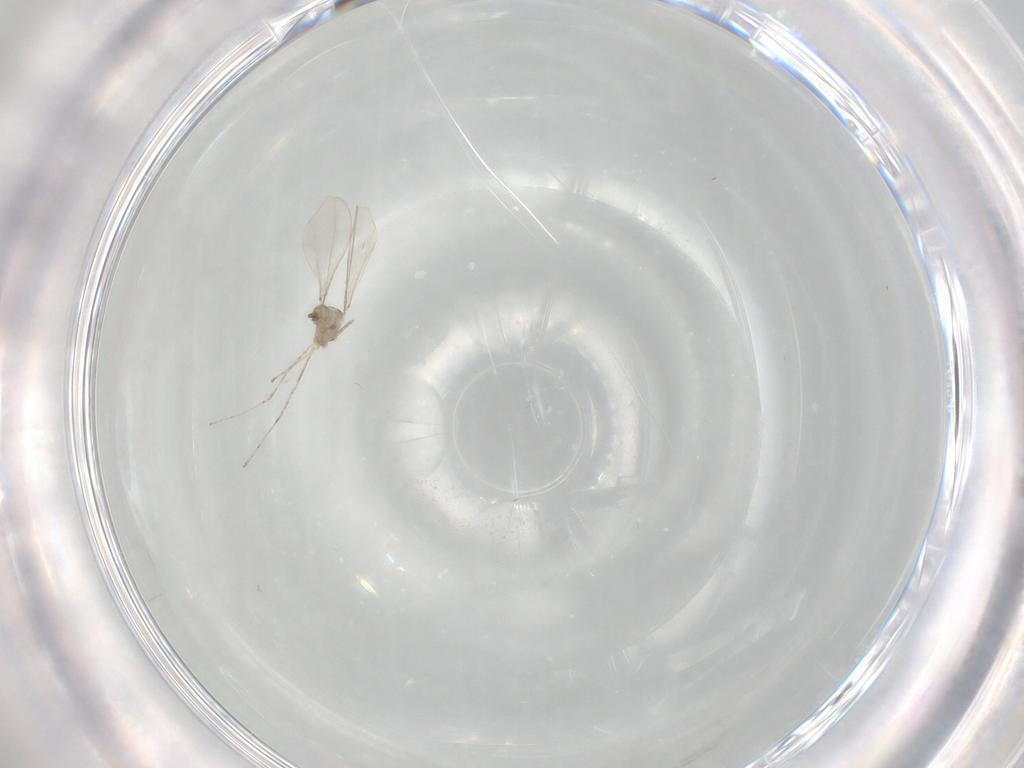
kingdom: Animalia
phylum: Arthropoda
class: Insecta
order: Diptera
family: Cecidomyiidae
